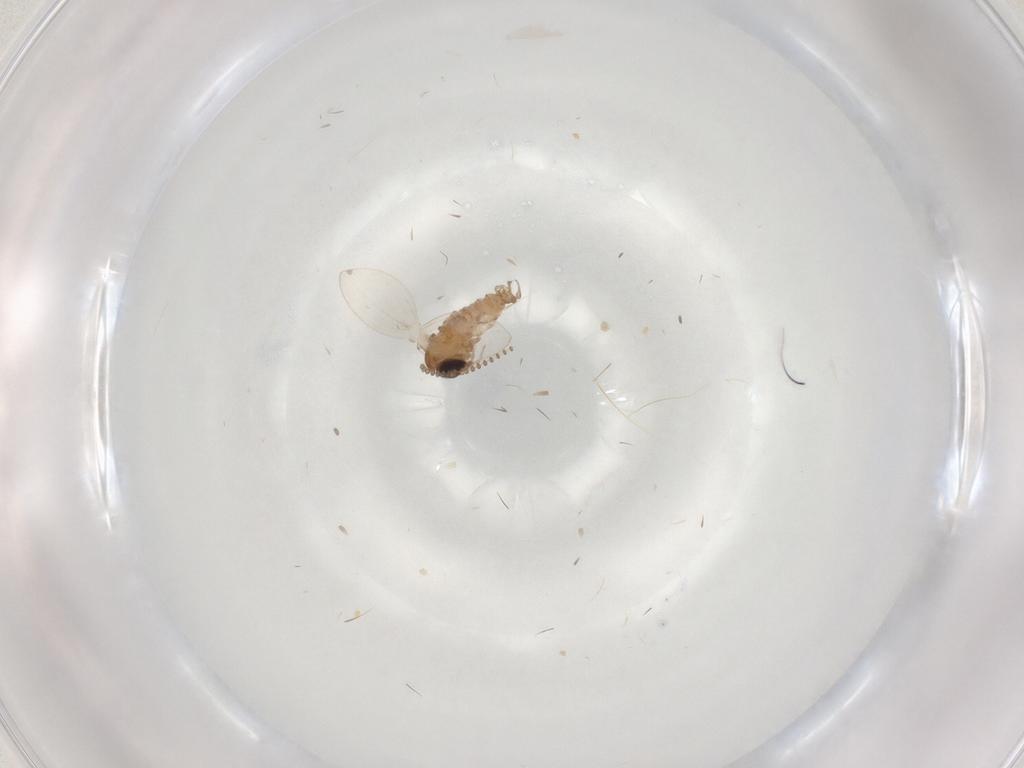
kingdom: Animalia
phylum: Arthropoda
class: Insecta
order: Diptera
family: Psychodidae
